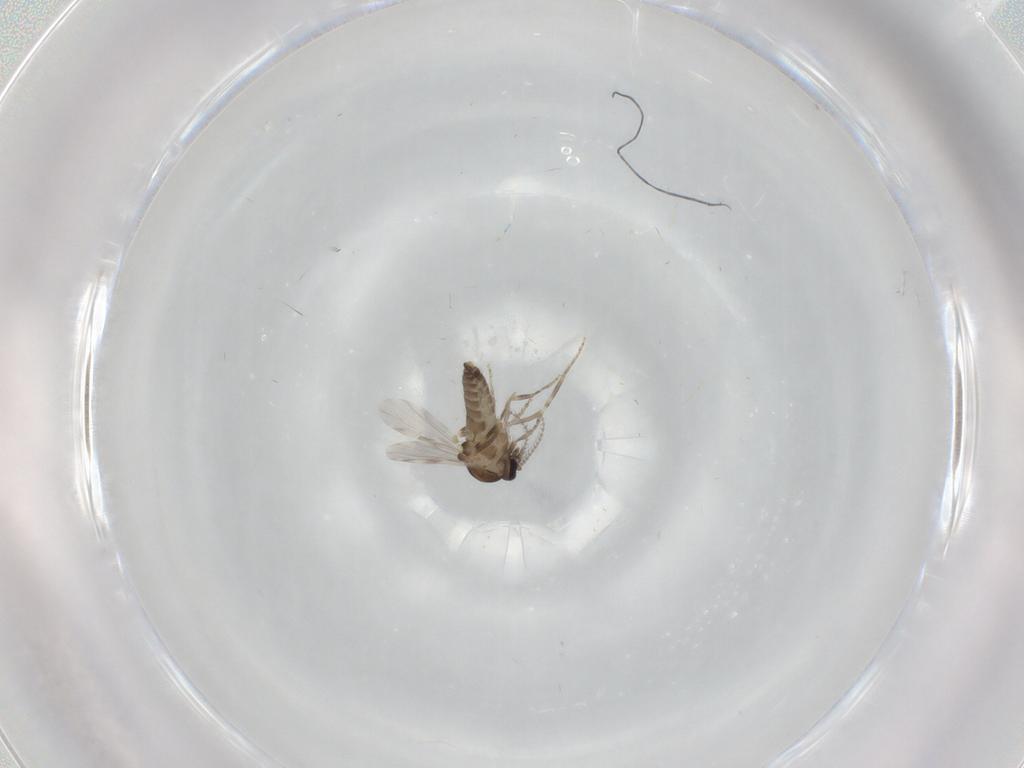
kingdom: Animalia
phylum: Arthropoda
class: Insecta
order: Diptera
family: Ceratopogonidae
